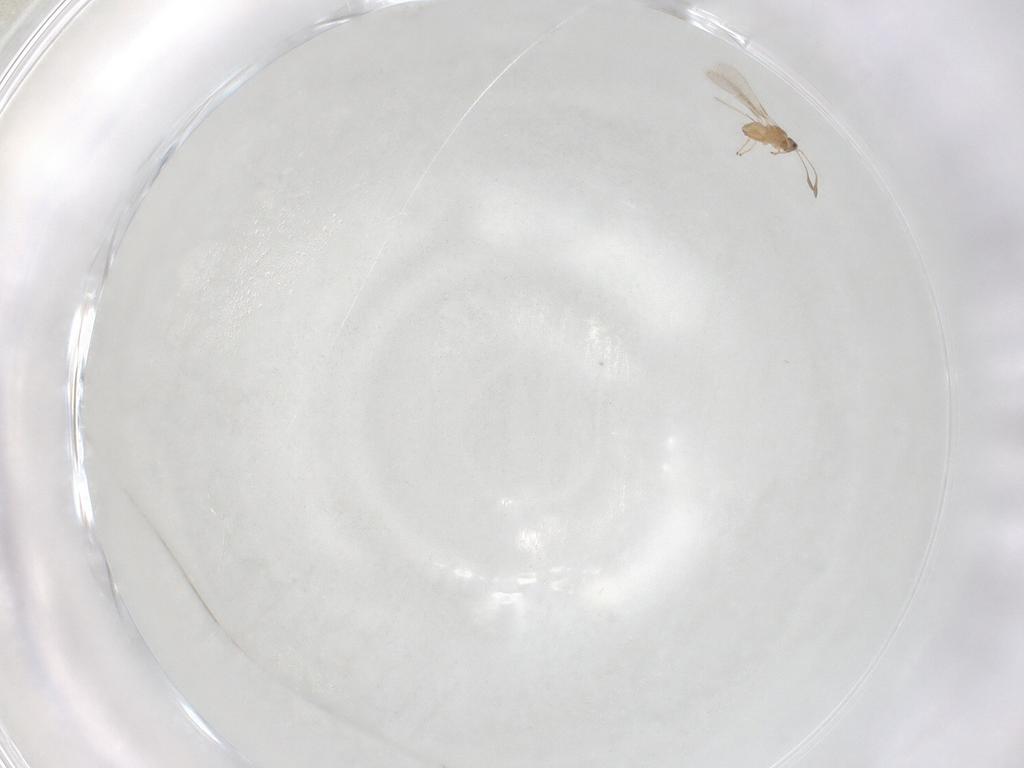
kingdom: Animalia
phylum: Arthropoda
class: Insecta
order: Hymenoptera
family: Mymaridae
